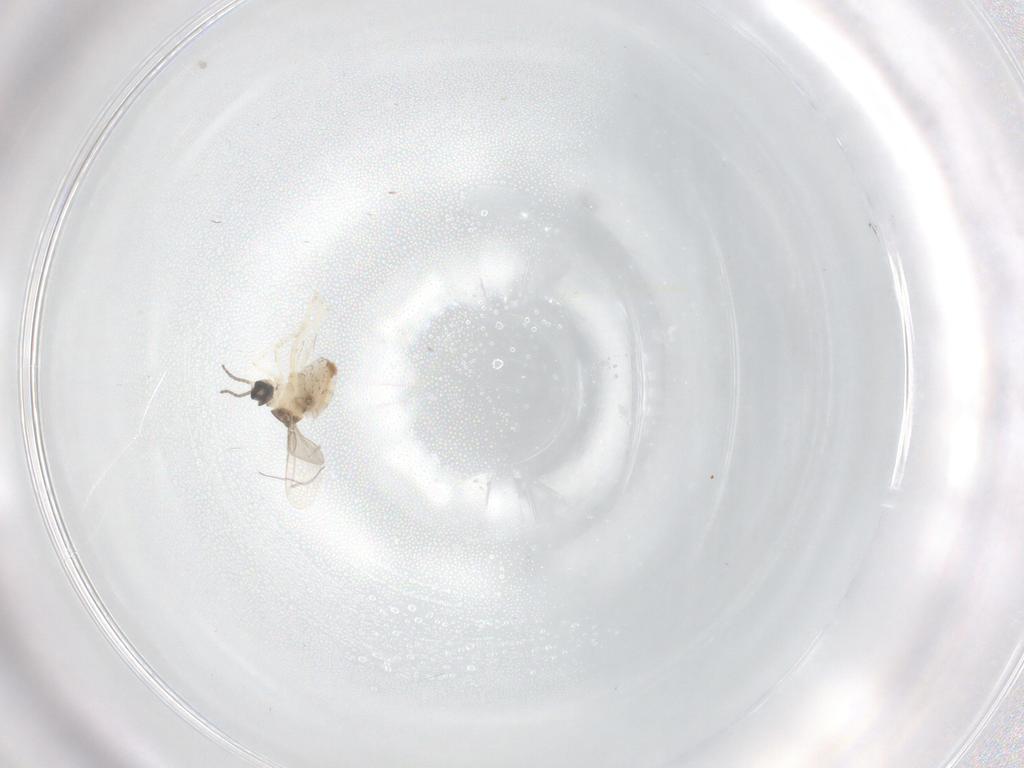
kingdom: Animalia
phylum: Arthropoda
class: Insecta
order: Diptera
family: Cecidomyiidae
